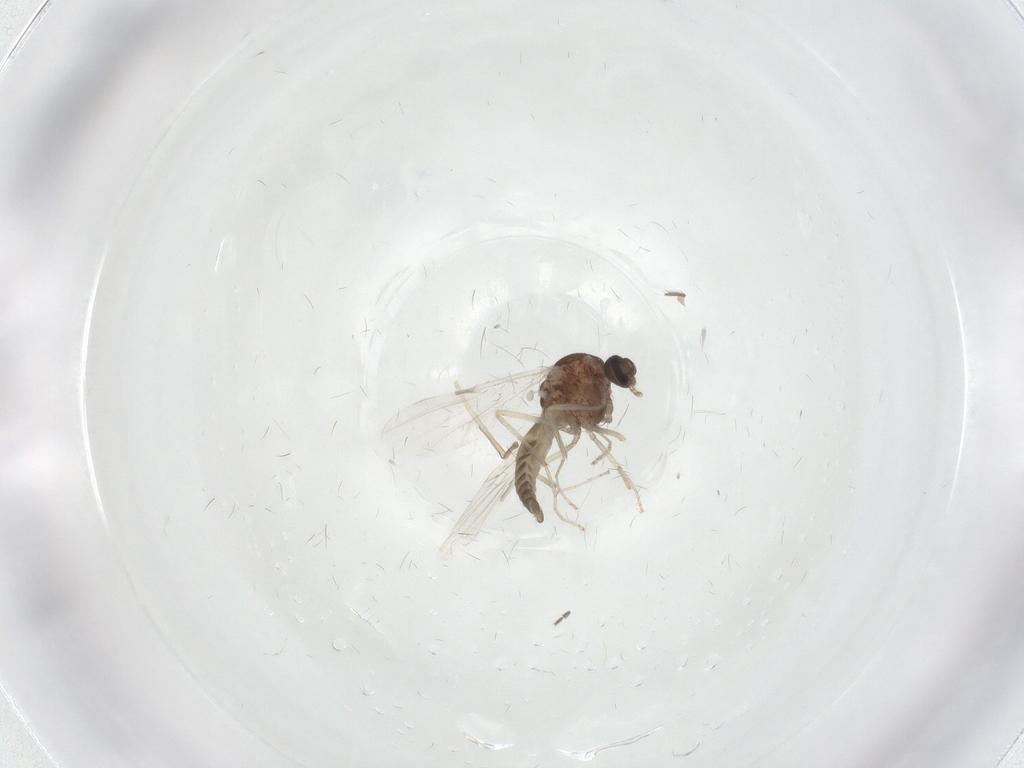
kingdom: Animalia
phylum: Arthropoda
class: Insecta
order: Diptera
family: Ceratopogonidae
